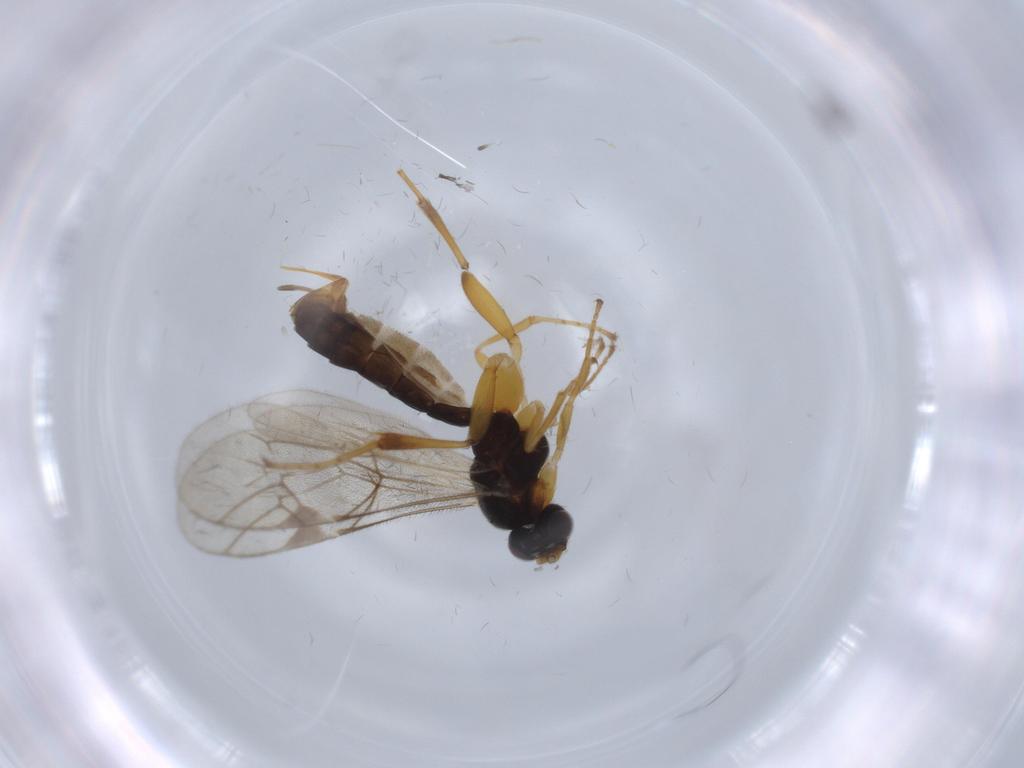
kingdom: Animalia
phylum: Arthropoda
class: Insecta
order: Hymenoptera
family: Ichneumonidae
